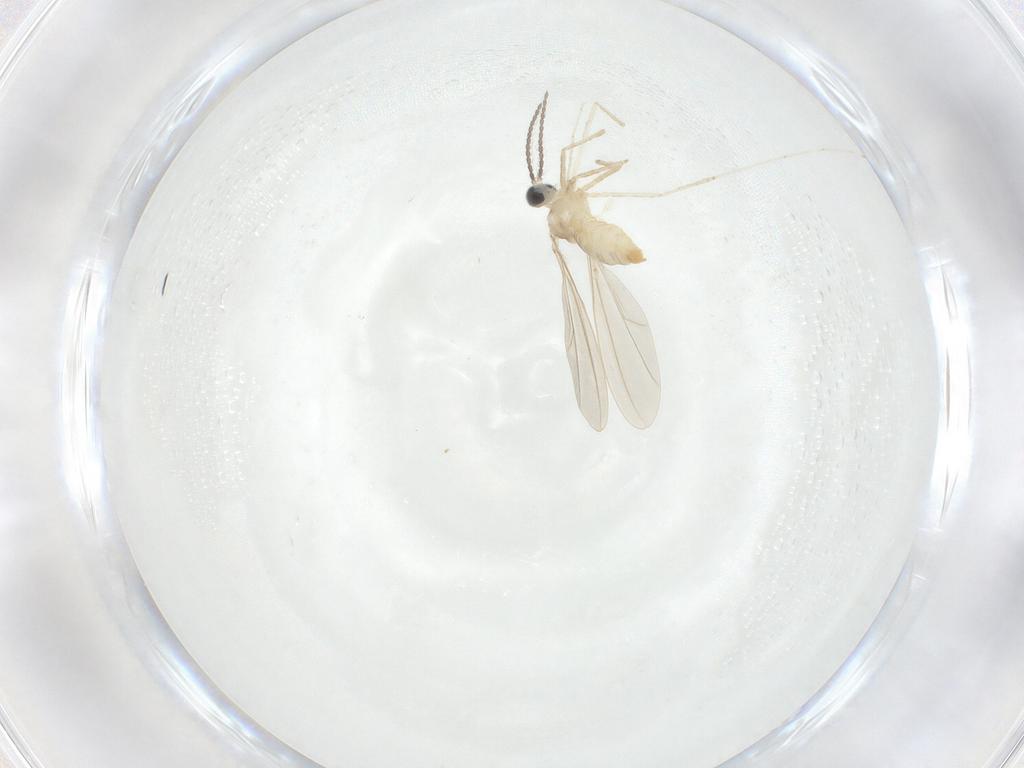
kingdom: Animalia
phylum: Arthropoda
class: Insecta
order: Diptera
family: Cecidomyiidae
